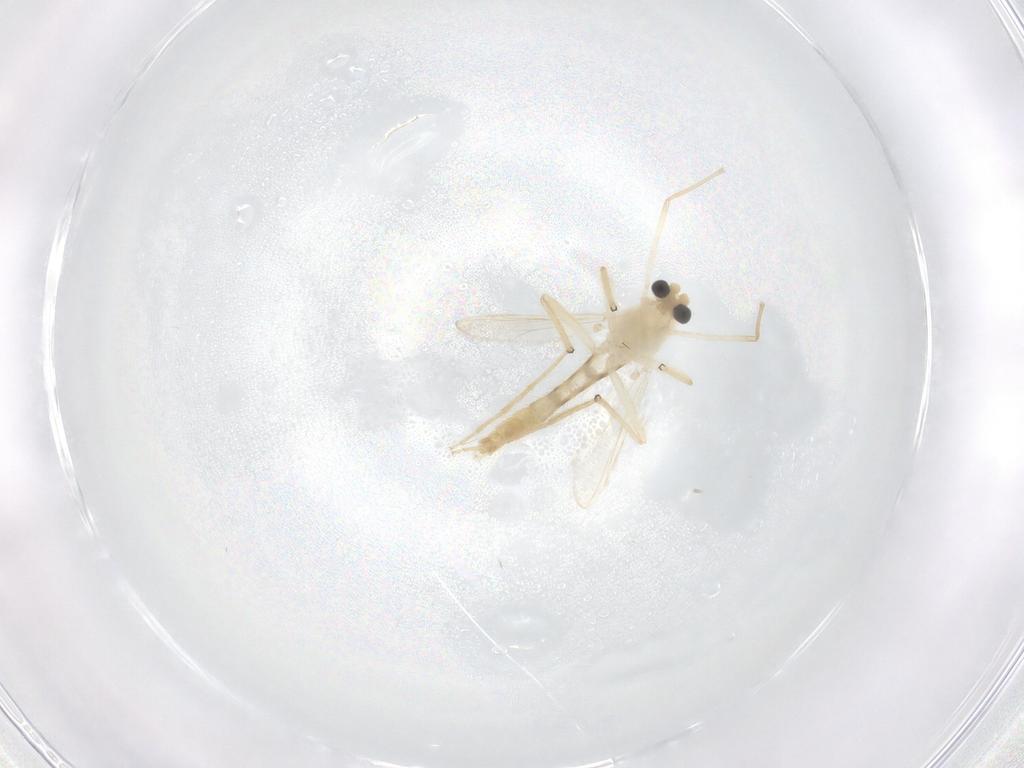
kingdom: Animalia
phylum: Arthropoda
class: Insecta
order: Diptera
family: Chironomidae
